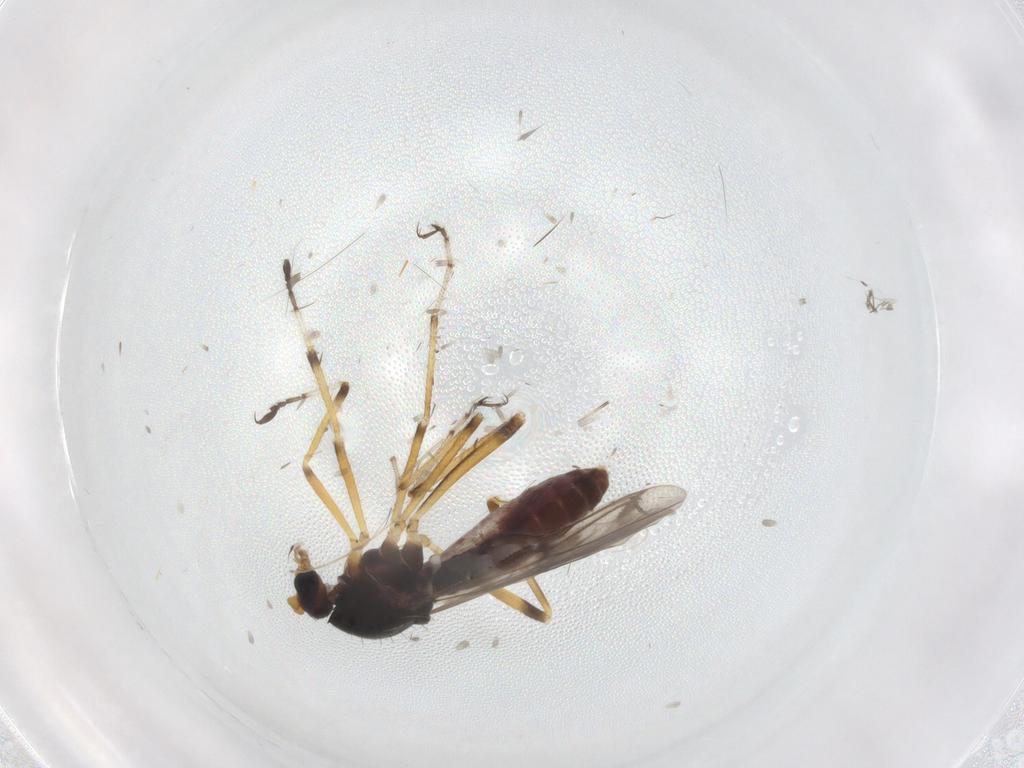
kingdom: Animalia
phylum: Arthropoda
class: Insecta
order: Diptera
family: Ceratopogonidae
